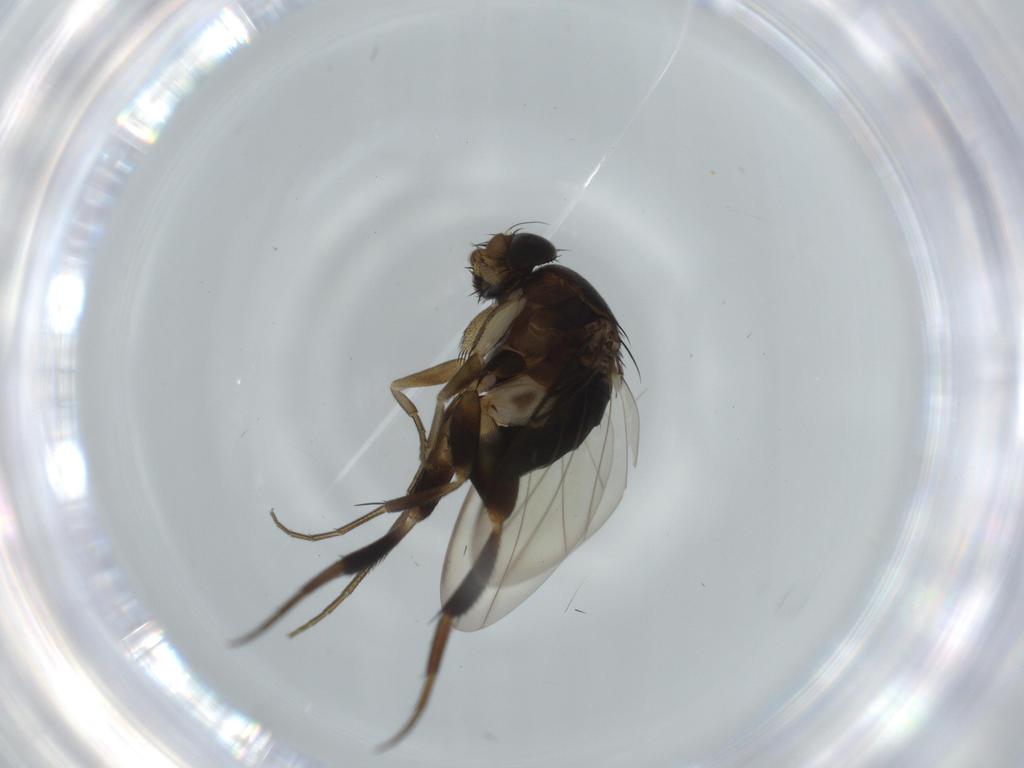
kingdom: Animalia
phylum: Arthropoda
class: Insecta
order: Diptera
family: Phoridae
